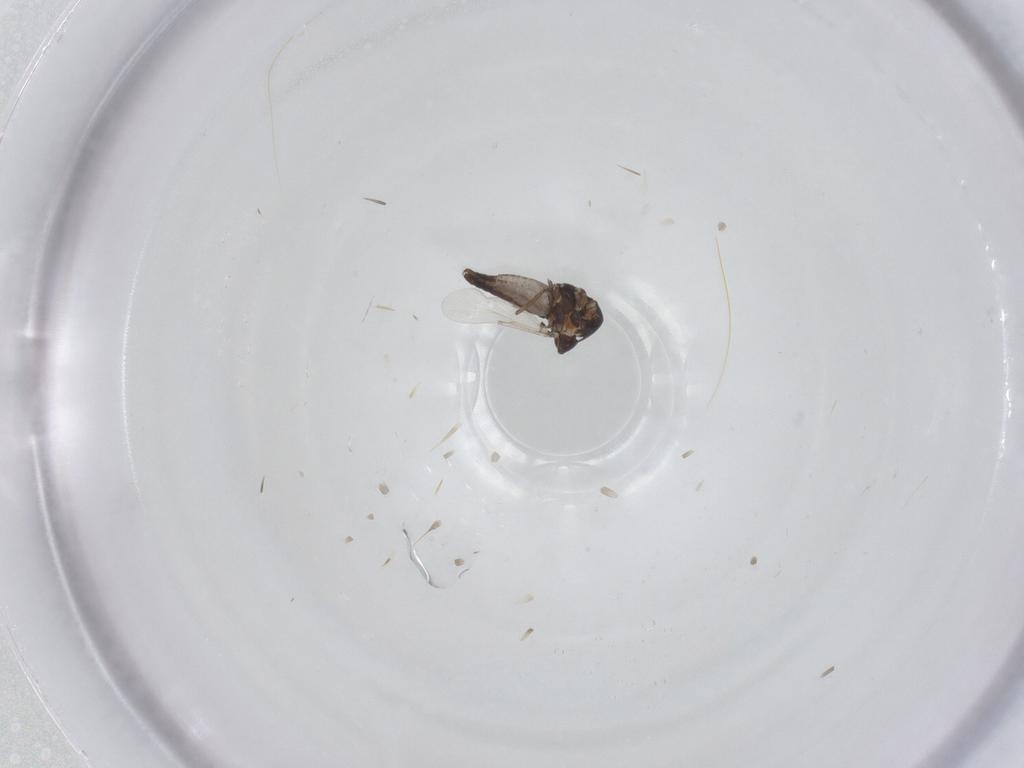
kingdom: Animalia
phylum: Arthropoda
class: Insecta
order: Diptera
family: Ceratopogonidae
